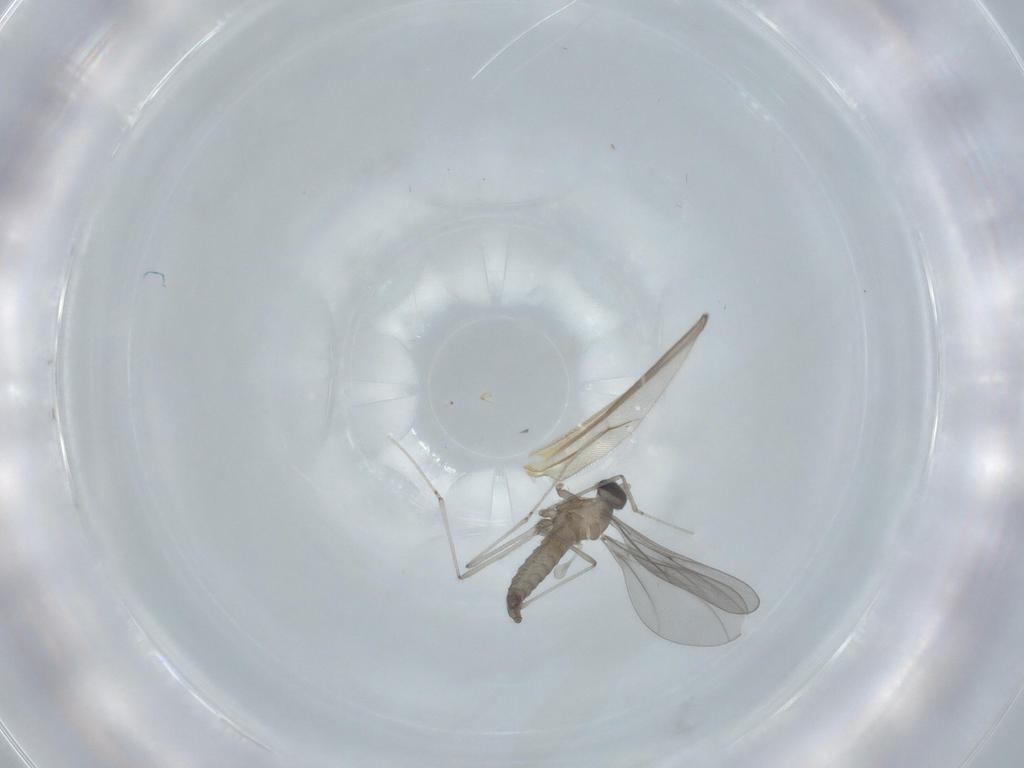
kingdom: Animalia
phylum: Arthropoda
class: Insecta
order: Diptera
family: Cecidomyiidae
